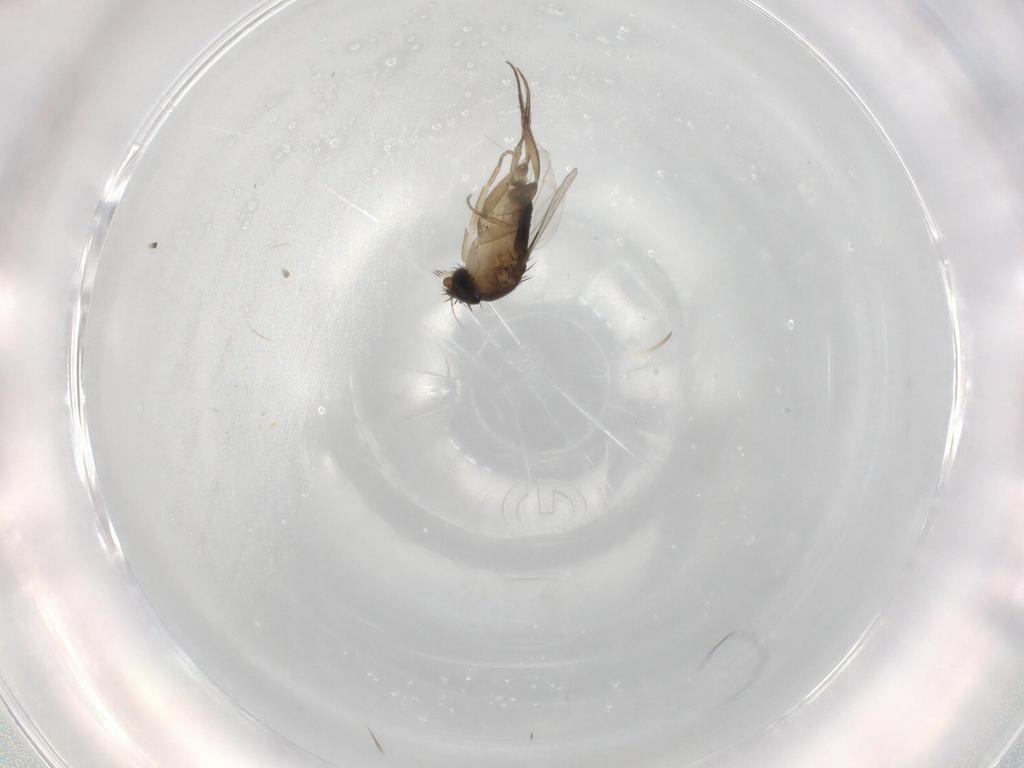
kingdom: Animalia
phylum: Arthropoda
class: Insecta
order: Diptera
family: Phoridae
